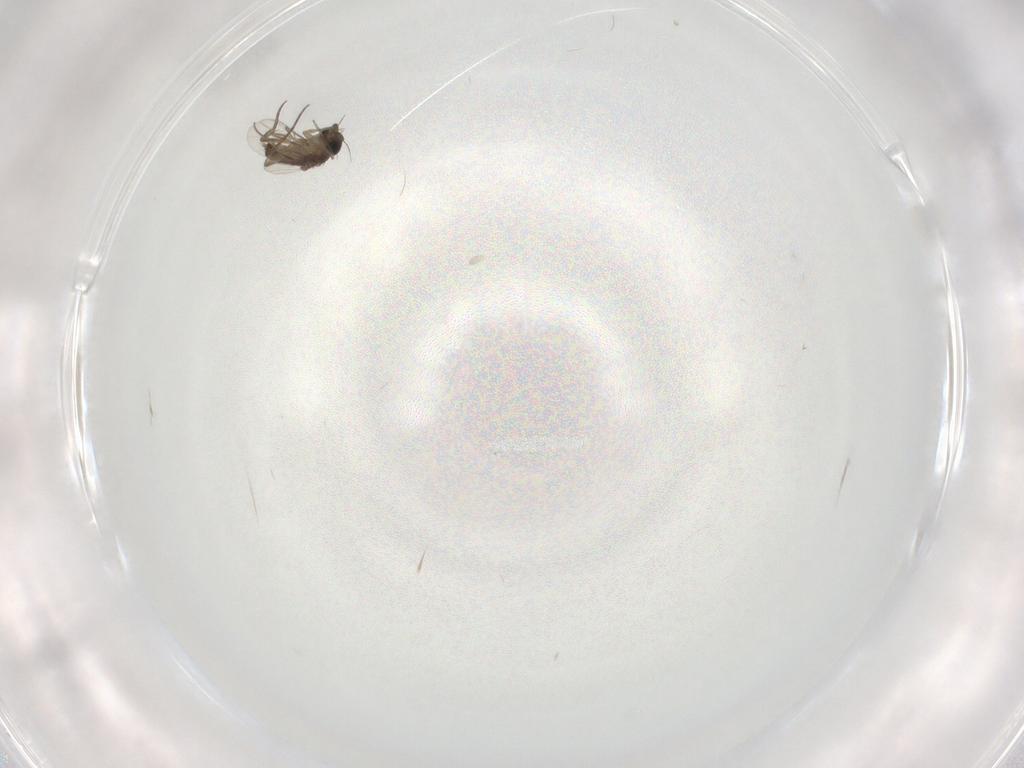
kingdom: Animalia
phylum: Arthropoda
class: Insecta
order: Diptera
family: Phoridae
